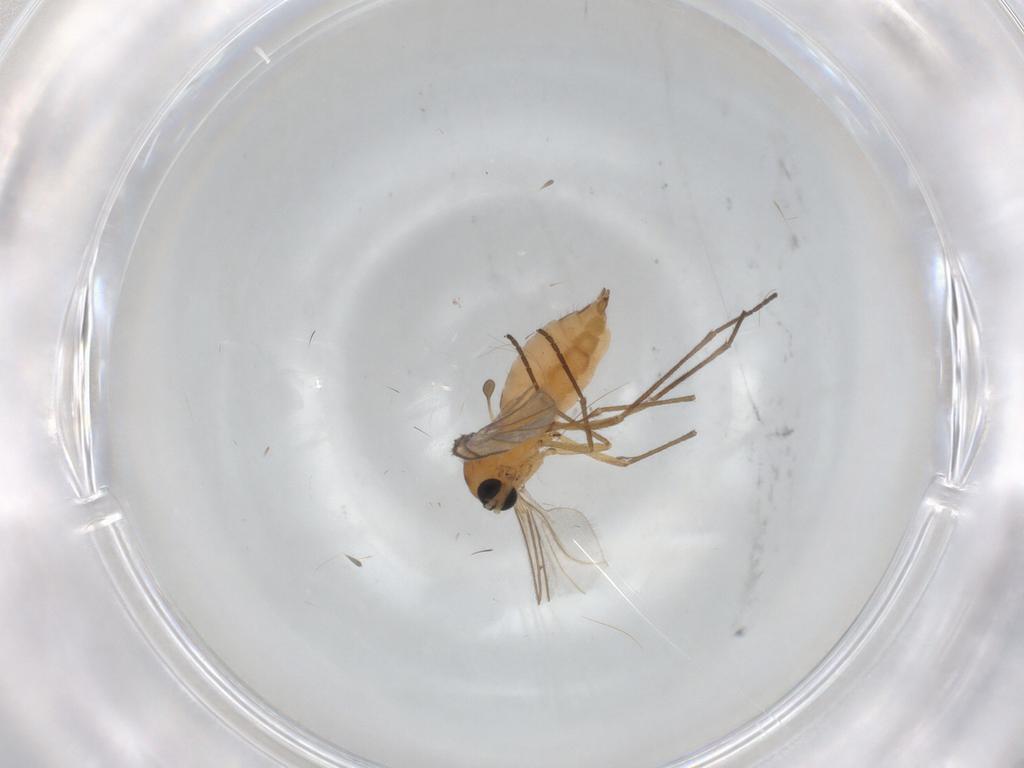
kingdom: Animalia
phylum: Arthropoda
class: Insecta
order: Diptera
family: Sciaridae
